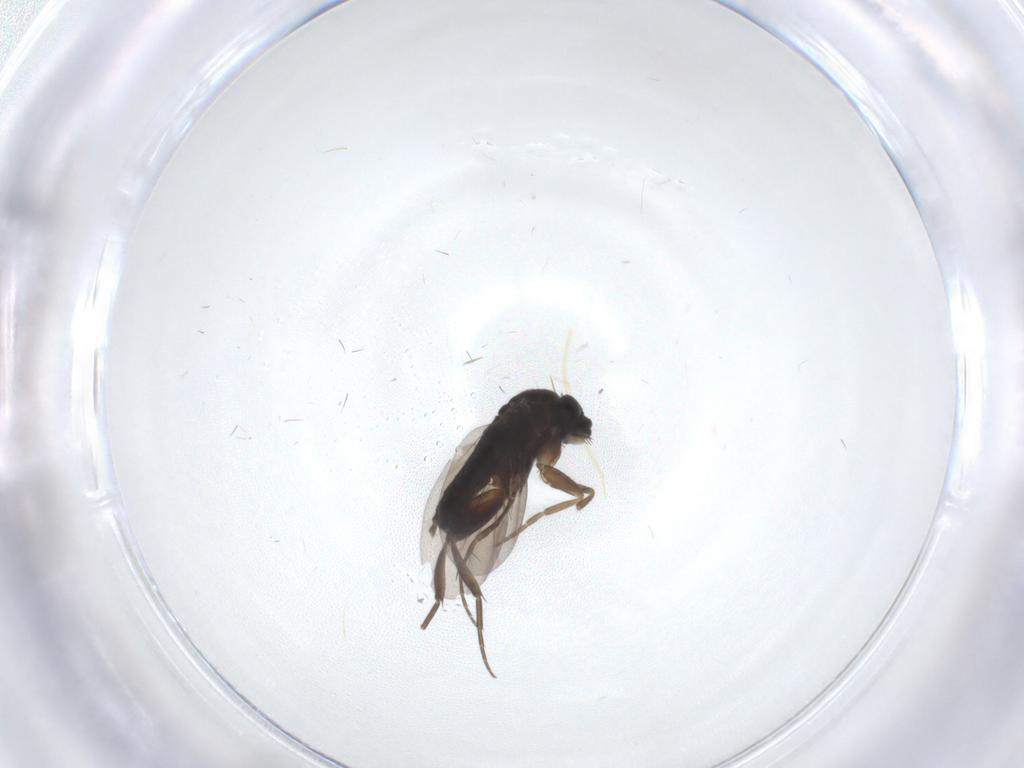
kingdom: Animalia
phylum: Arthropoda
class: Insecta
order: Diptera
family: Phoridae
